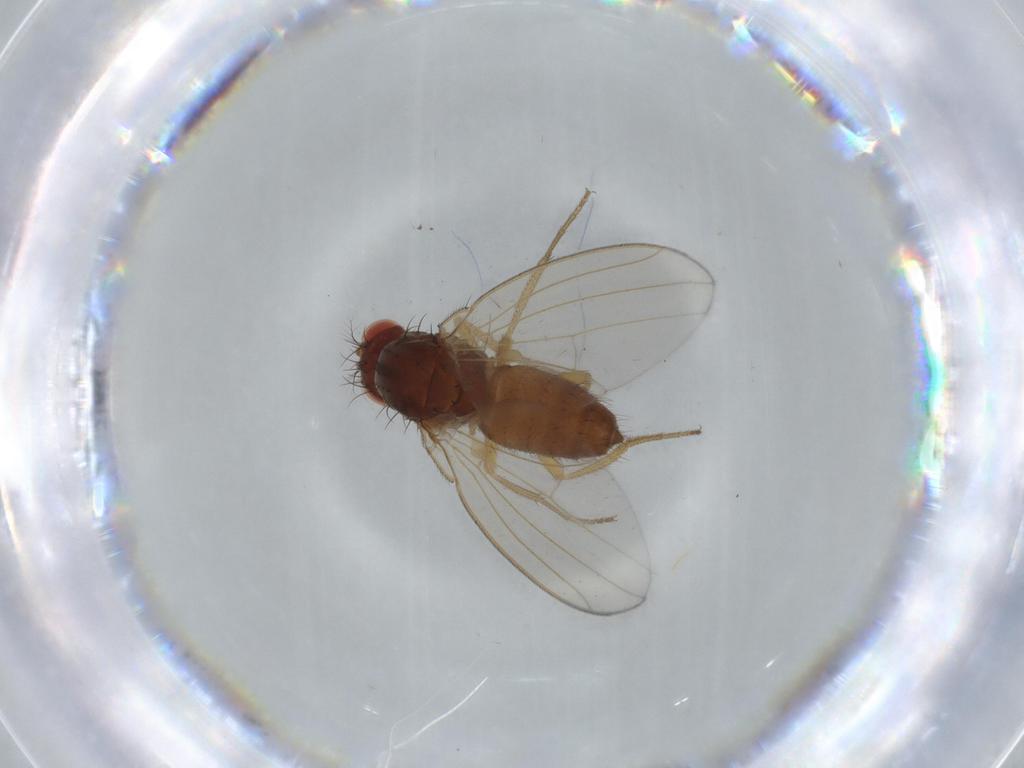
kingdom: Animalia
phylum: Arthropoda
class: Insecta
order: Diptera
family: Drosophilidae
